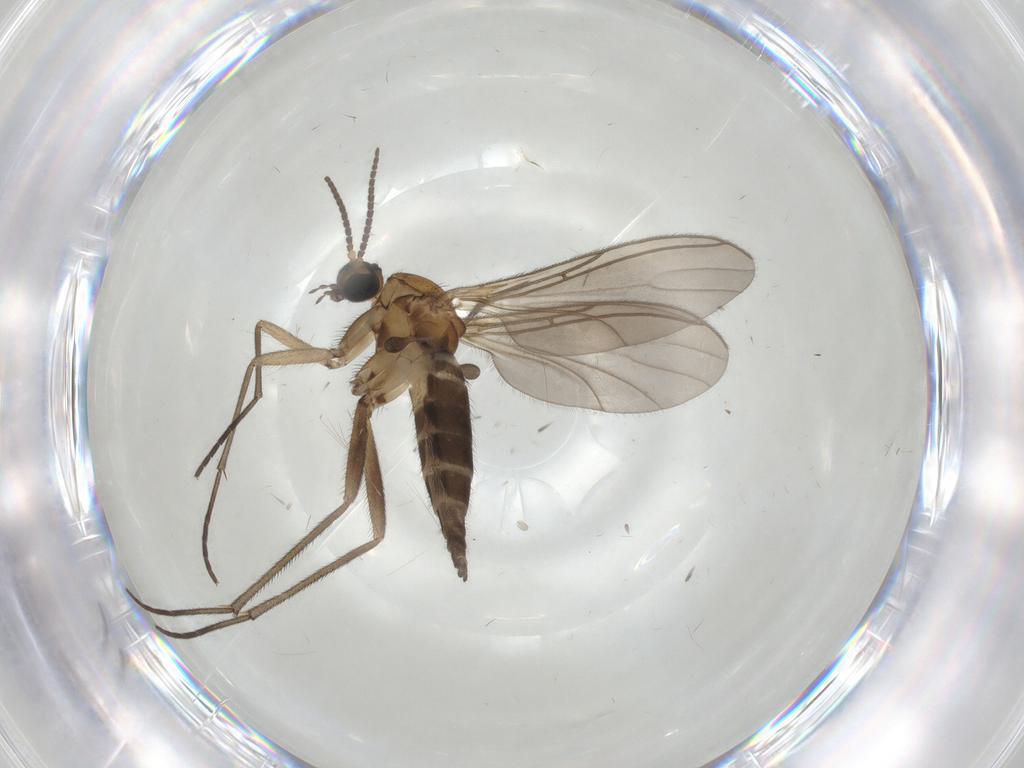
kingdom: Animalia
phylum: Arthropoda
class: Insecta
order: Diptera
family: Sciaridae
